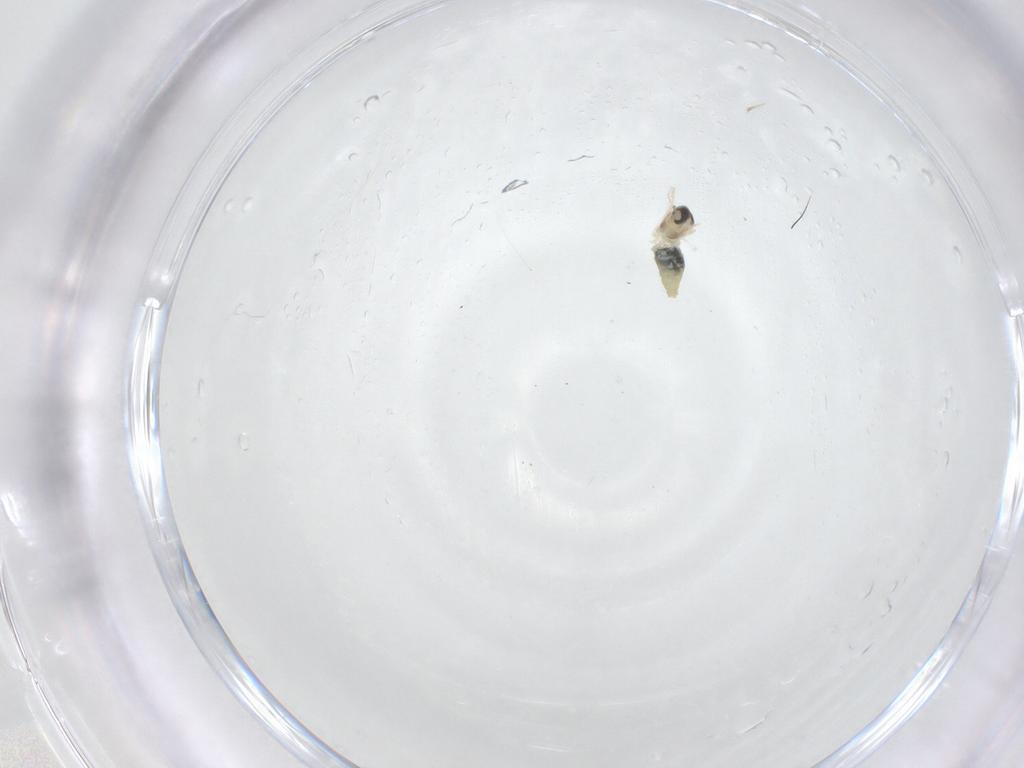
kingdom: Animalia
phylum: Arthropoda
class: Insecta
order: Diptera
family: Cecidomyiidae
